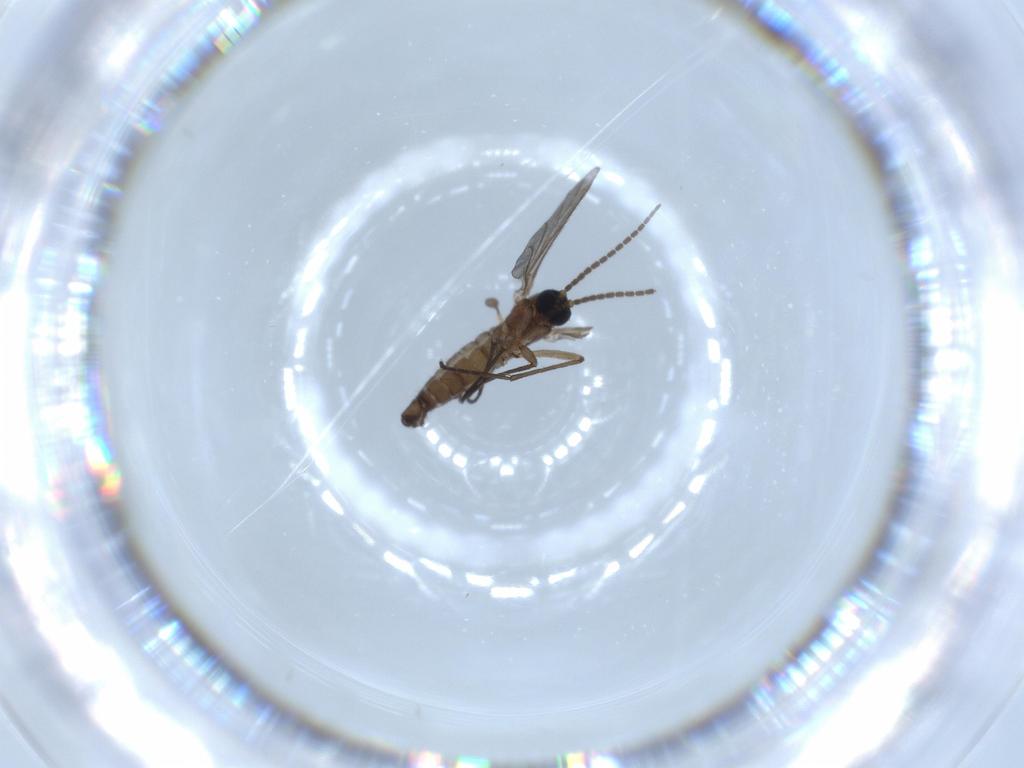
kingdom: Animalia
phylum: Arthropoda
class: Insecta
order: Diptera
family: Sciaridae
